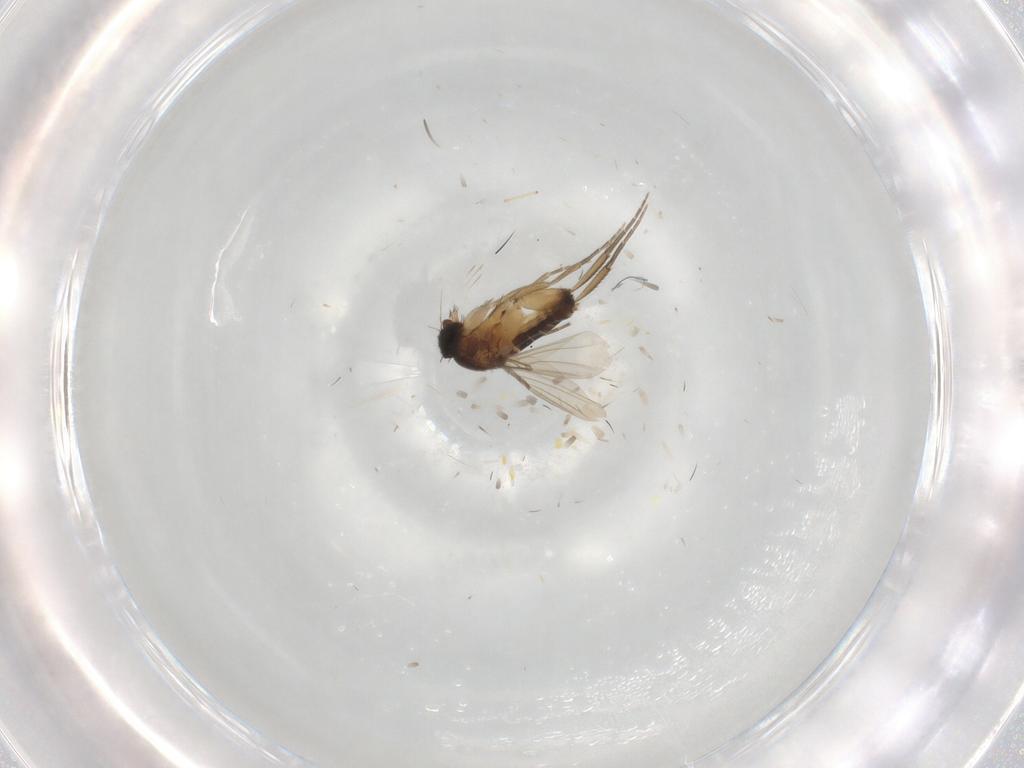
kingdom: Animalia
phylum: Arthropoda
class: Insecta
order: Diptera
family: Phoridae
